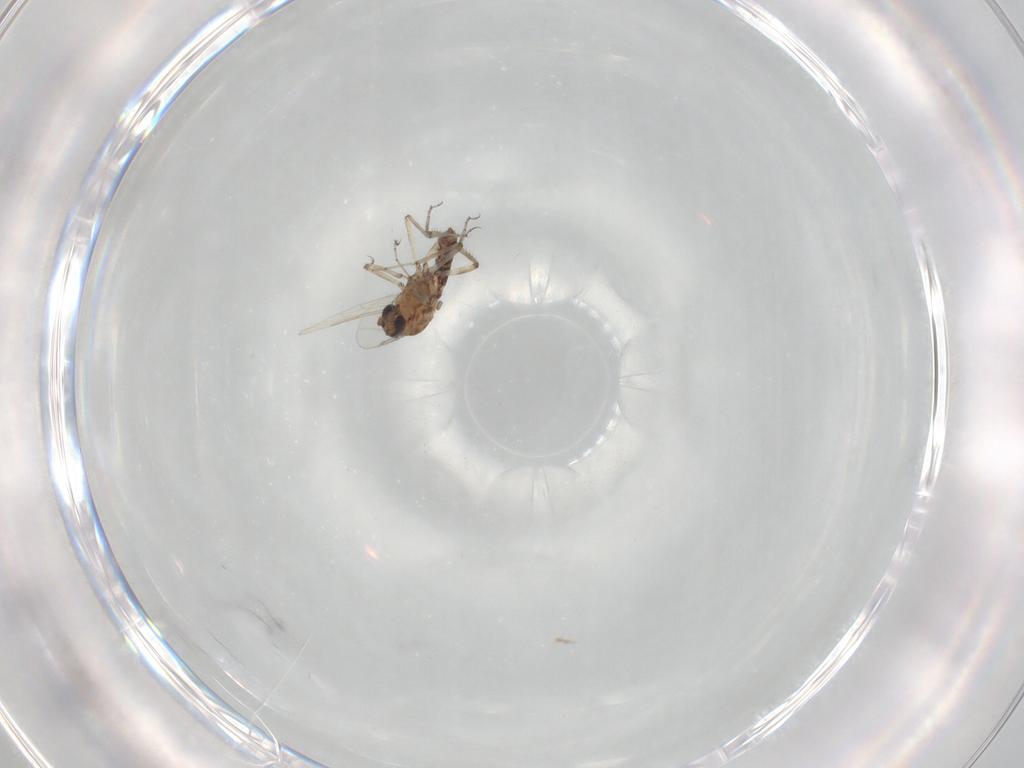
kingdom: Animalia
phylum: Arthropoda
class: Insecta
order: Diptera
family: Ceratopogonidae
